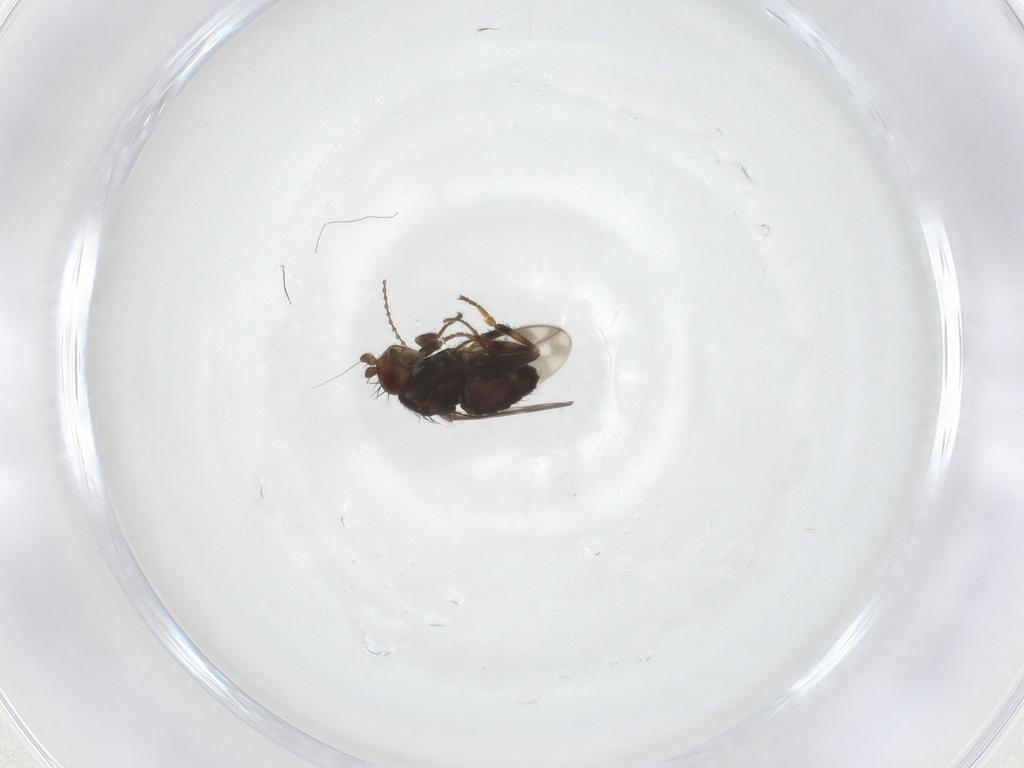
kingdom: Animalia
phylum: Arthropoda
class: Insecta
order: Diptera
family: Sphaeroceridae
